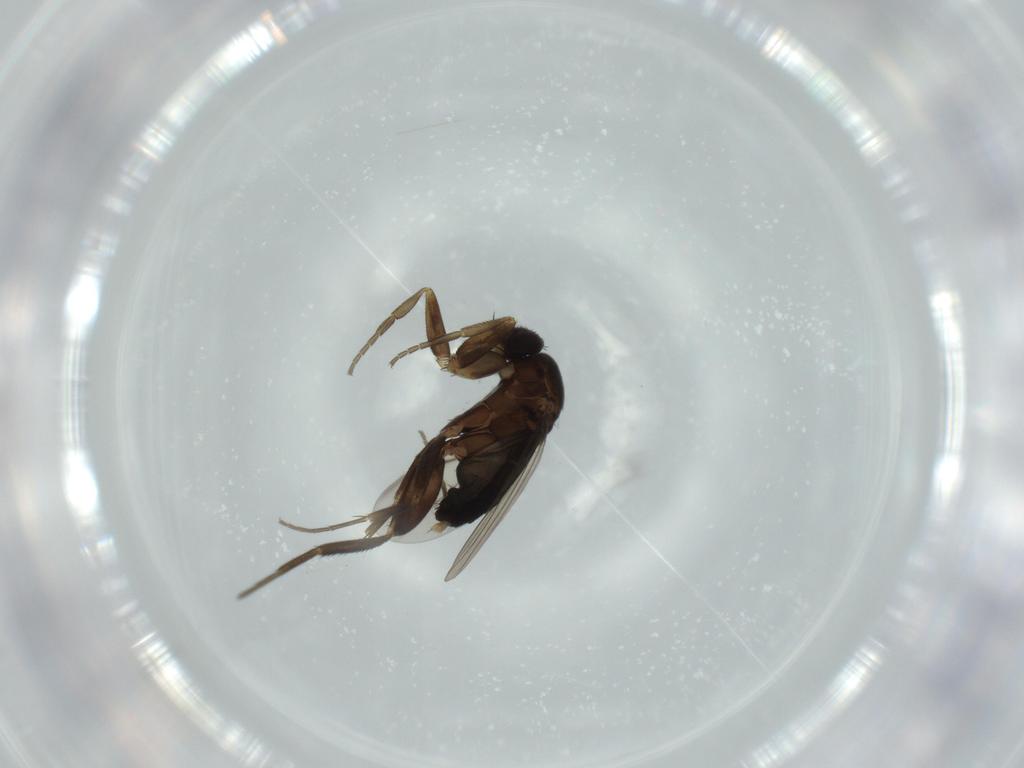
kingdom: Animalia
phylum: Arthropoda
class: Insecta
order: Diptera
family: Phoridae
